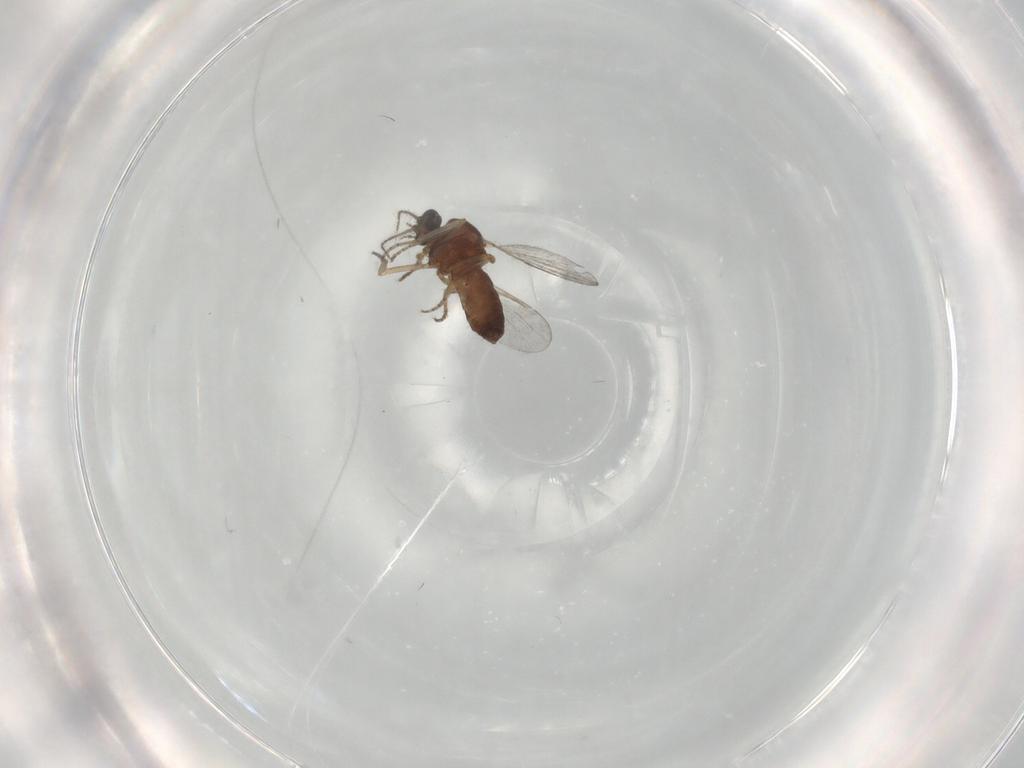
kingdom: Animalia
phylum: Arthropoda
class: Insecta
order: Diptera
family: Ceratopogonidae
